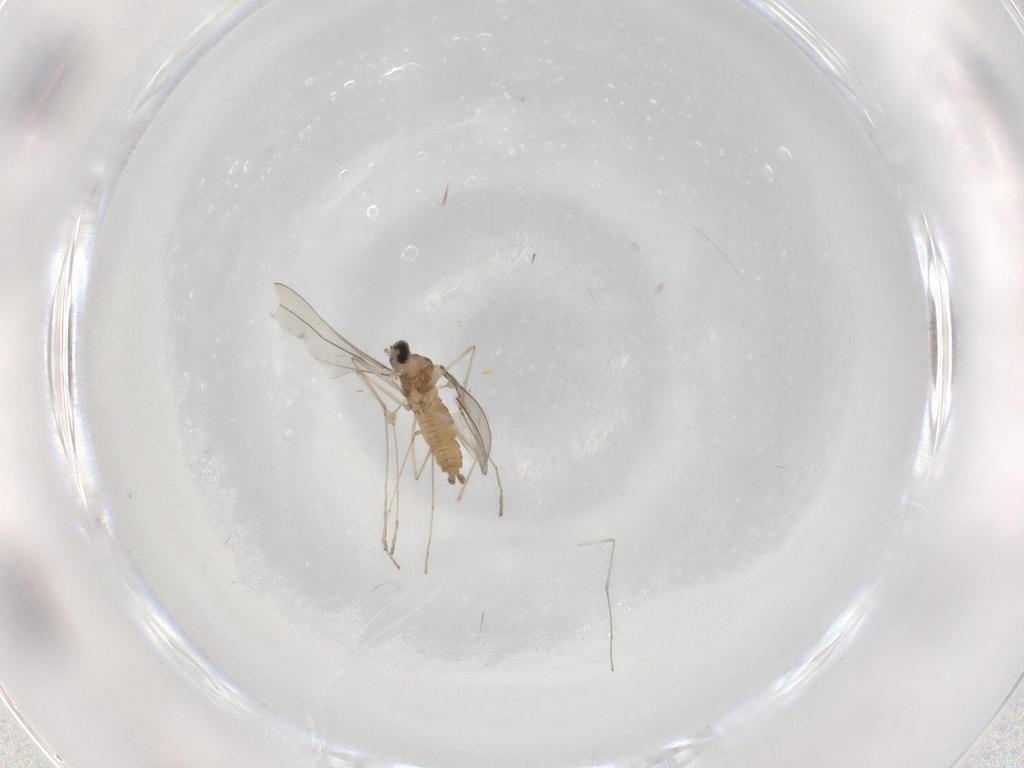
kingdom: Animalia
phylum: Arthropoda
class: Insecta
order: Diptera
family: Cecidomyiidae
